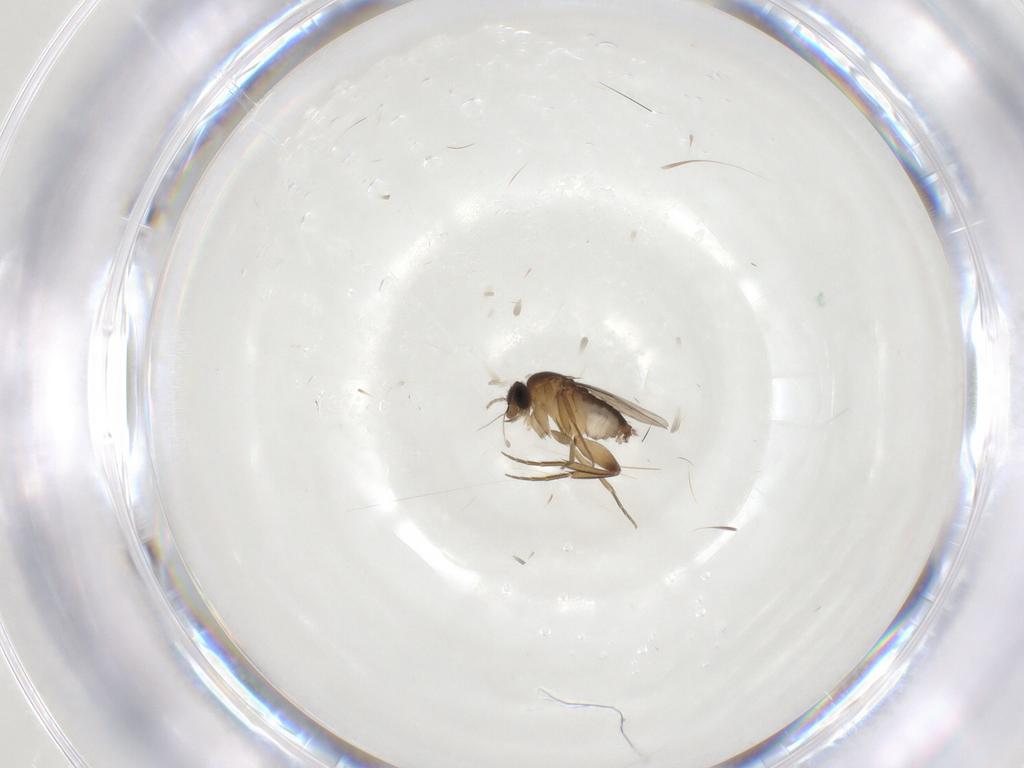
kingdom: Animalia
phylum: Arthropoda
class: Insecta
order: Diptera
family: Phoridae
